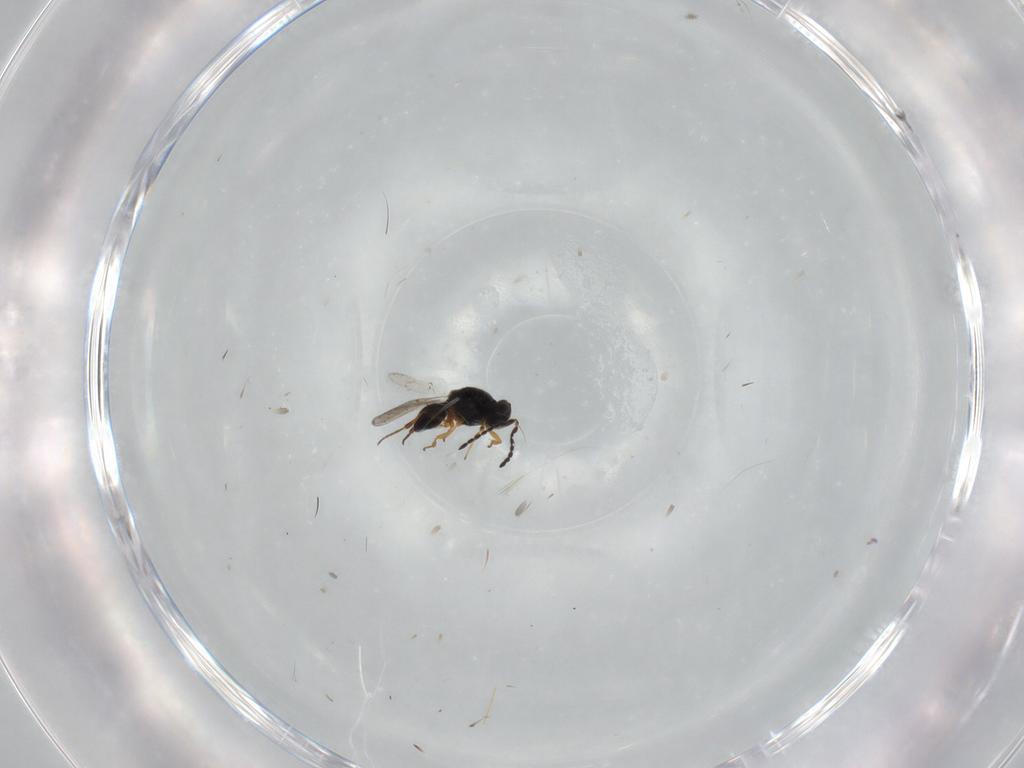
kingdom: Animalia
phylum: Arthropoda
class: Insecta
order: Hymenoptera
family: Platygastridae
